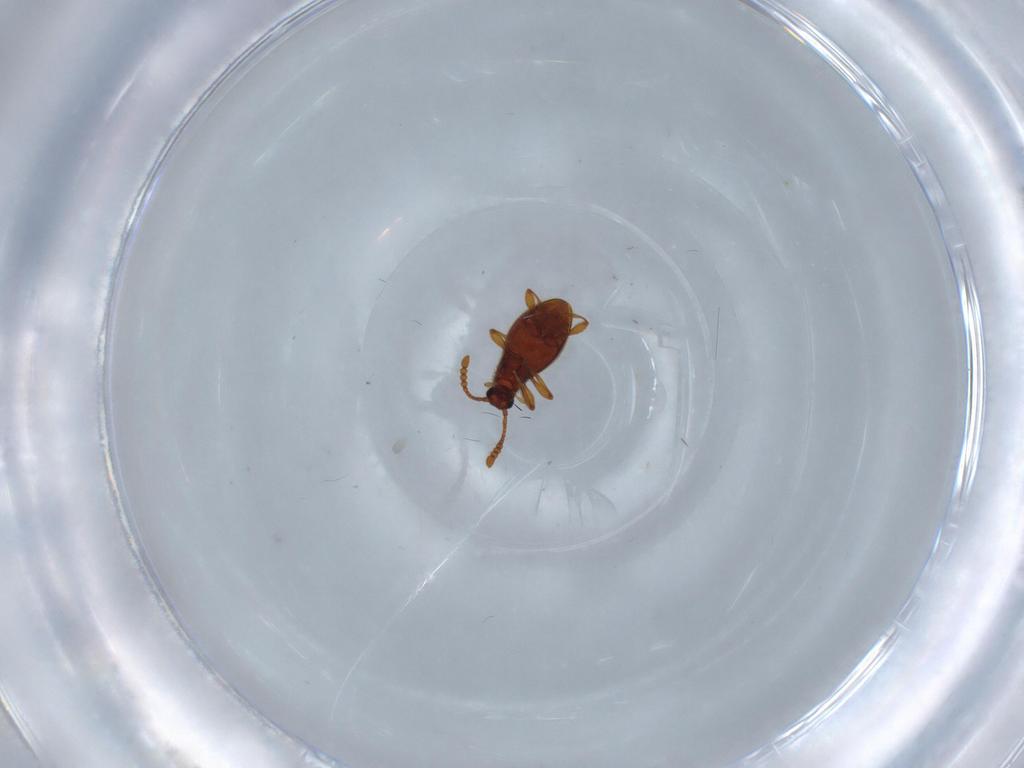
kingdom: Animalia
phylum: Arthropoda
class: Insecta
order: Coleoptera
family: Staphylinidae
